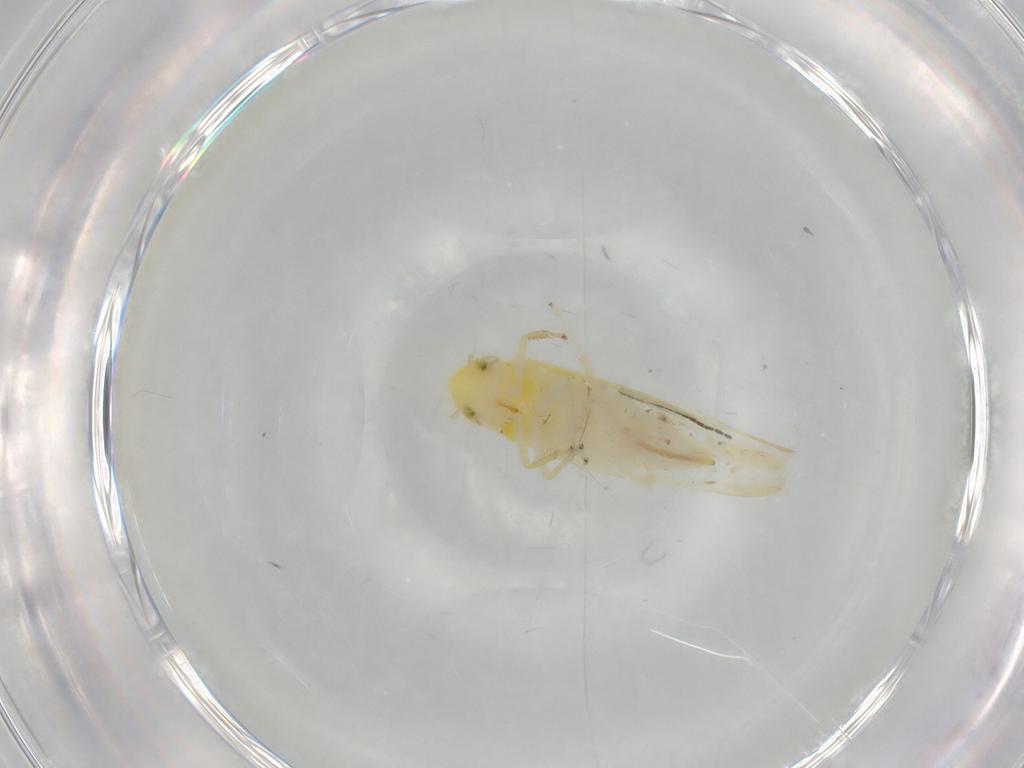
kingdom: Animalia
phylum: Arthropoda
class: Insecta
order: Hemiptera
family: Cicadellidae
